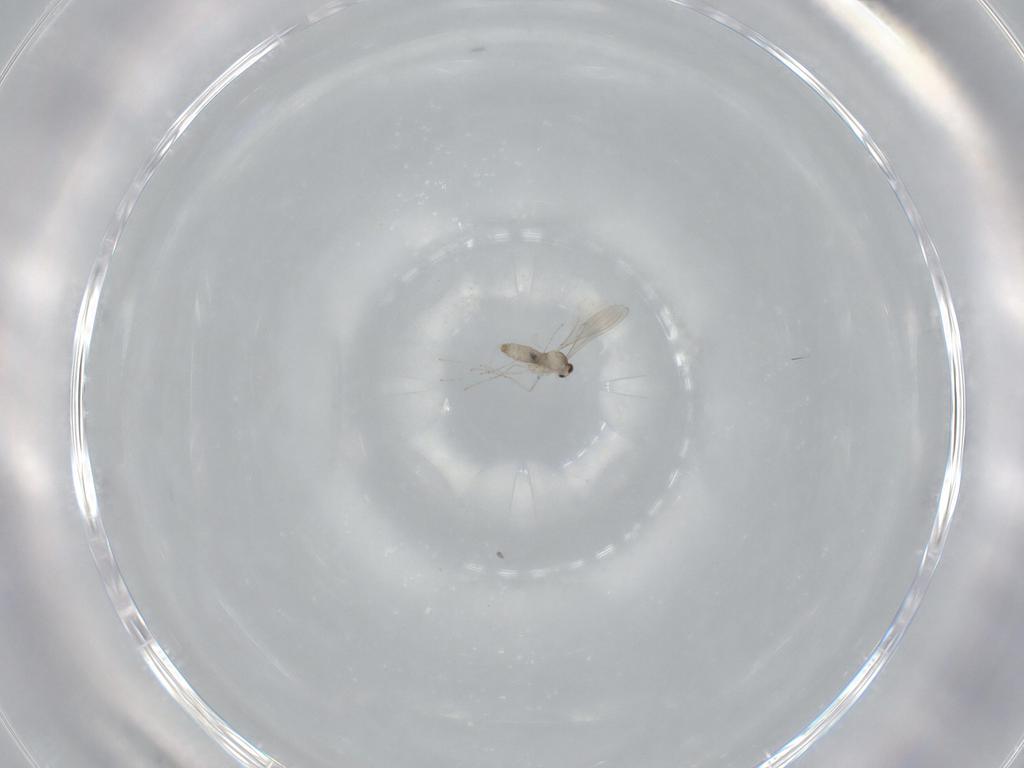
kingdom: Animalia
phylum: Arthropoda
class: Insecta
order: Diptera
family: Cecidomyiidae
